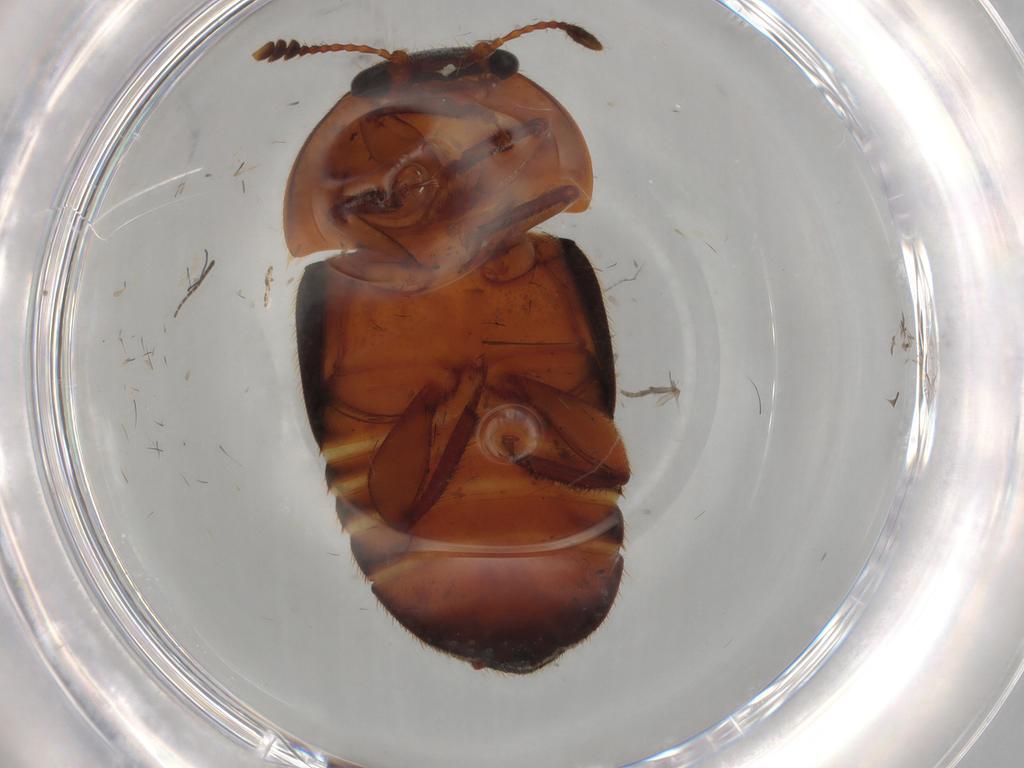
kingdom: Animalia
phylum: Arthropoda
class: Insecta
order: Coleoptera
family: Nitidulidae
